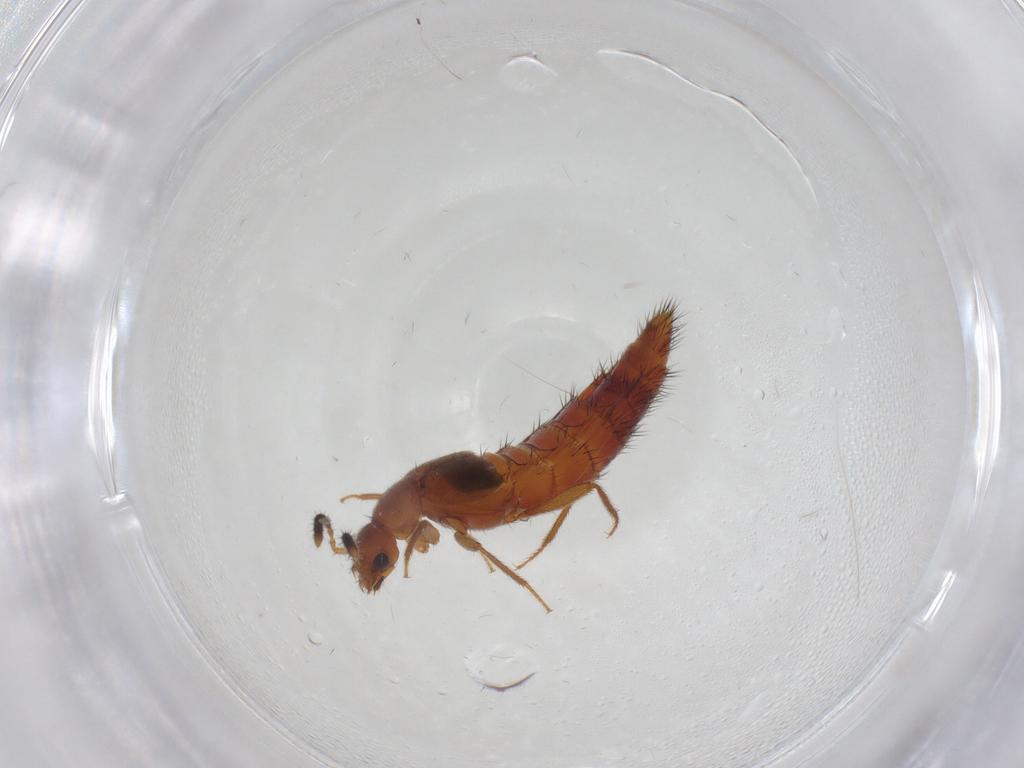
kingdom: Animalia
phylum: Arthropoda
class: Insecta
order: Coleoptera
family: Staphylinidae
